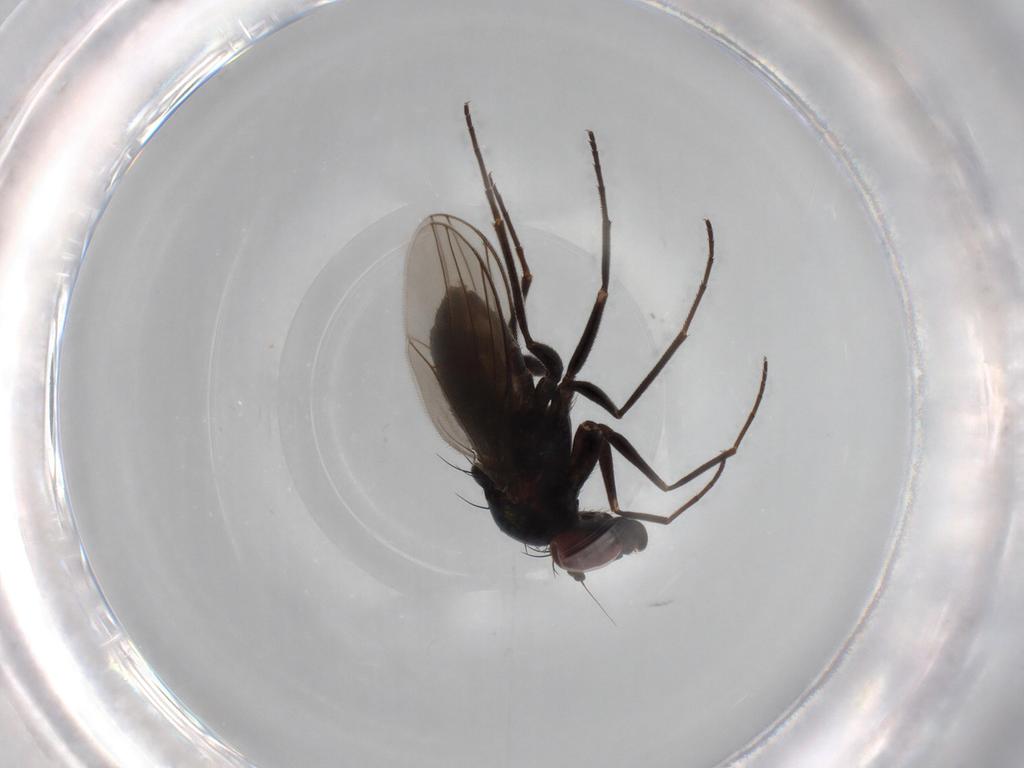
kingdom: Animalia
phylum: Arthropoda
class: Insecta
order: Diptera
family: Dolichopodidae
